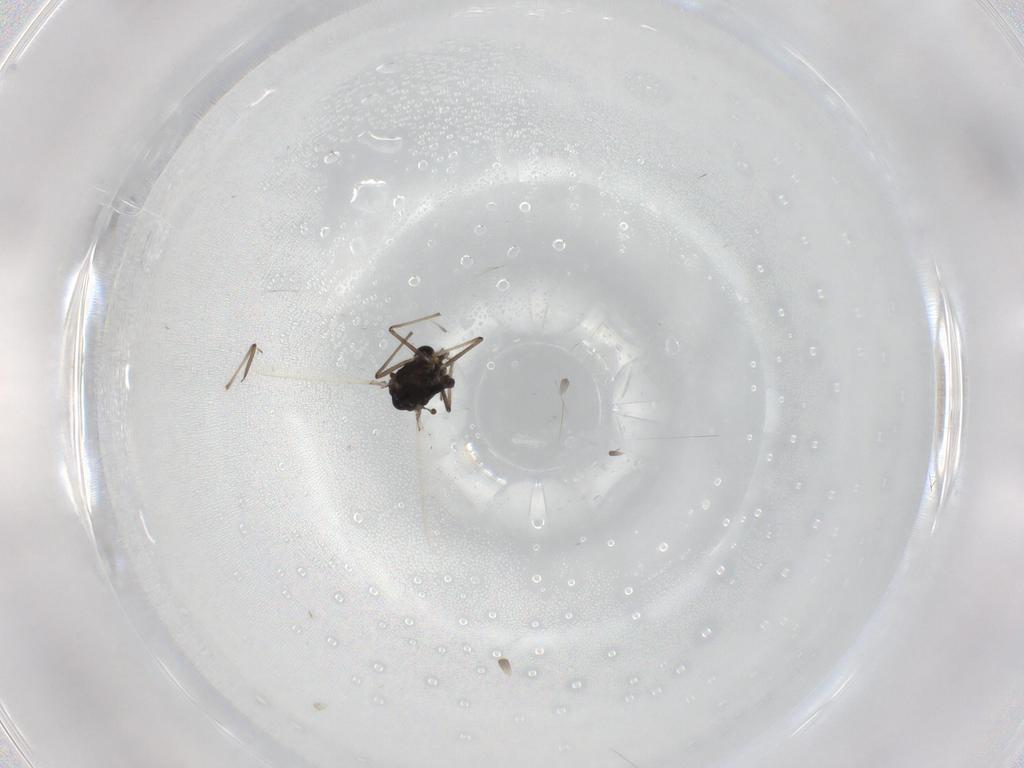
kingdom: Animalia
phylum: Arthropoda
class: Insecta
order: Diptera
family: Chironomidae
